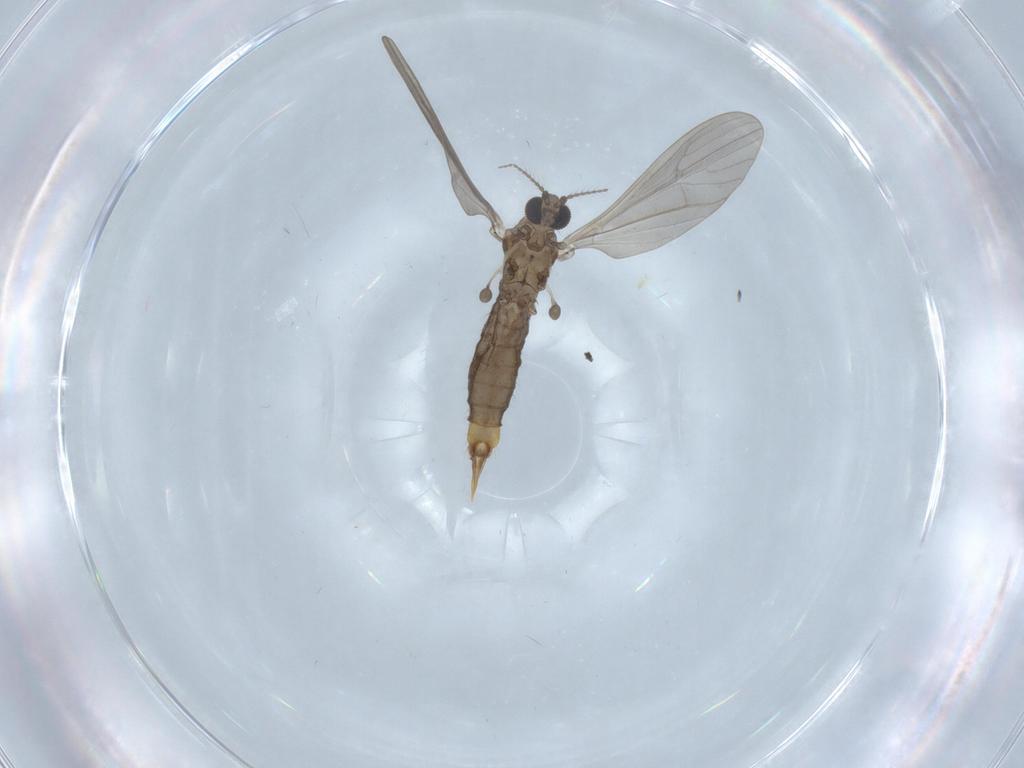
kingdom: Animalia
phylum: Arthropoda
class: Insecta
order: Diptera
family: Limoniidae
